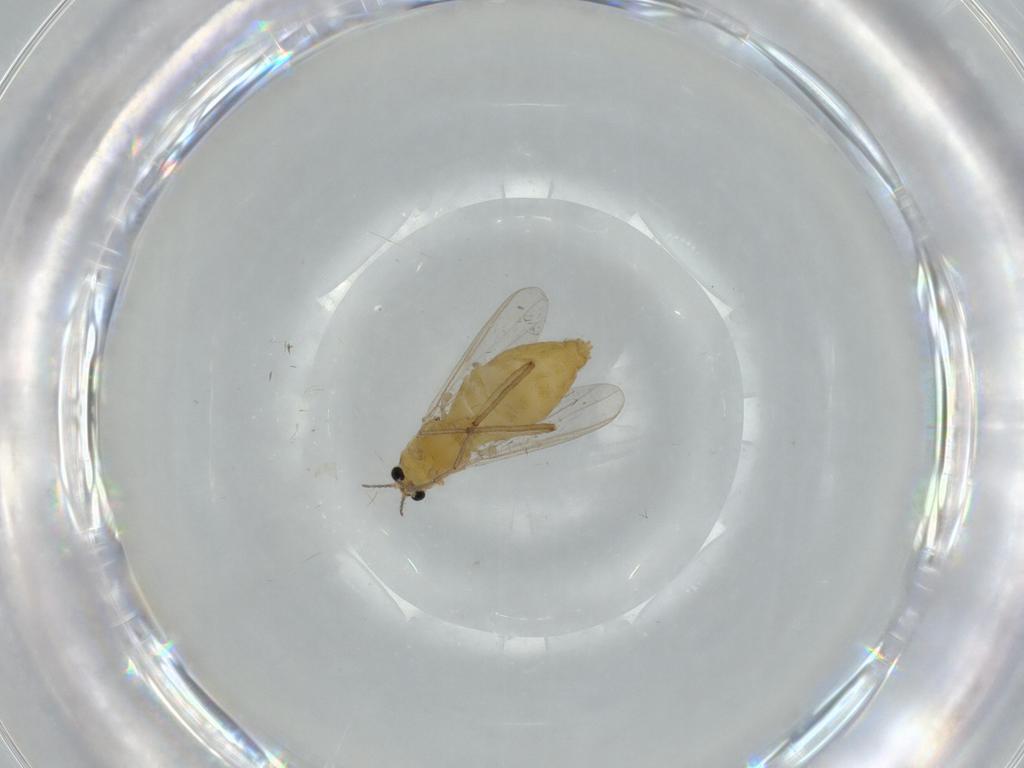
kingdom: Animalia
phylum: Arthropoda
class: Insecta
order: Diptera
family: Chironomidae
